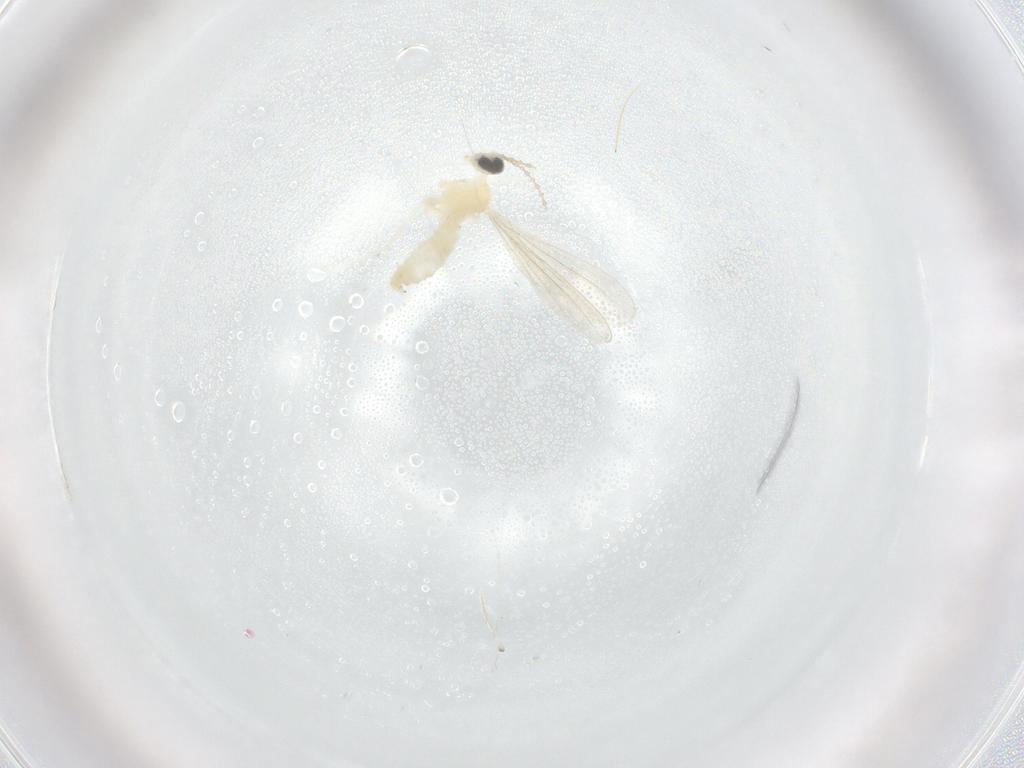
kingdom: Animalia
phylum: Arthropoda
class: Insecta
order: Diptera
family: Cecidomyiidae
